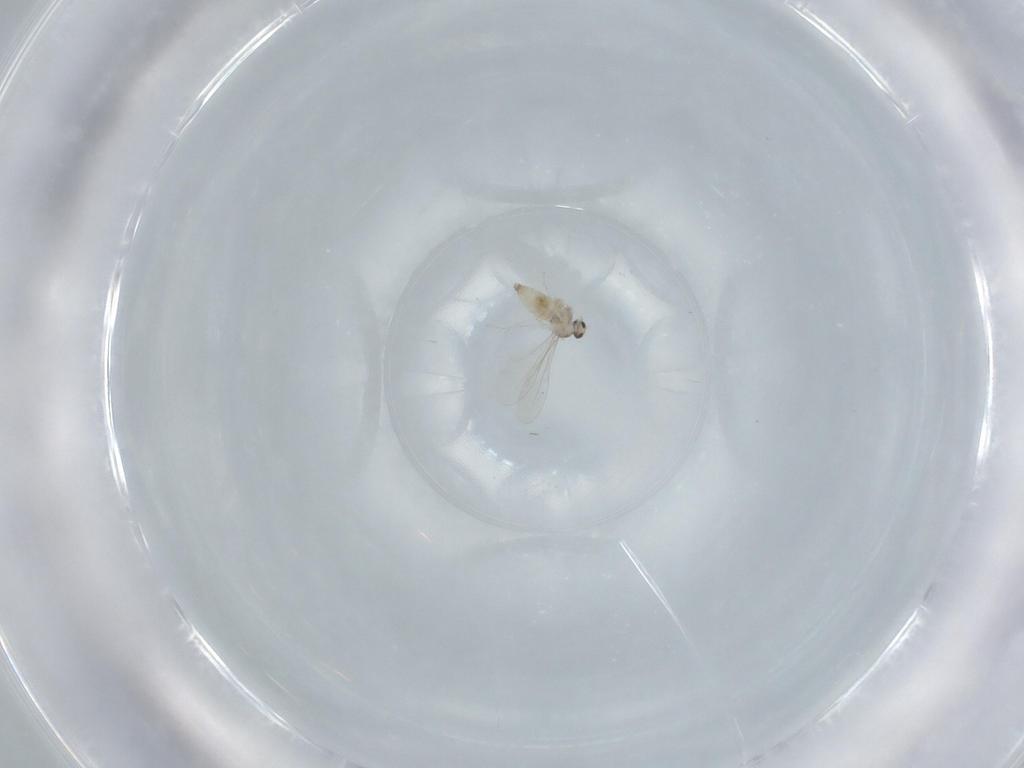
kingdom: Animalia
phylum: Arthropoda
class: Insecta
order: Diptera
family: Cecidomyiidae
